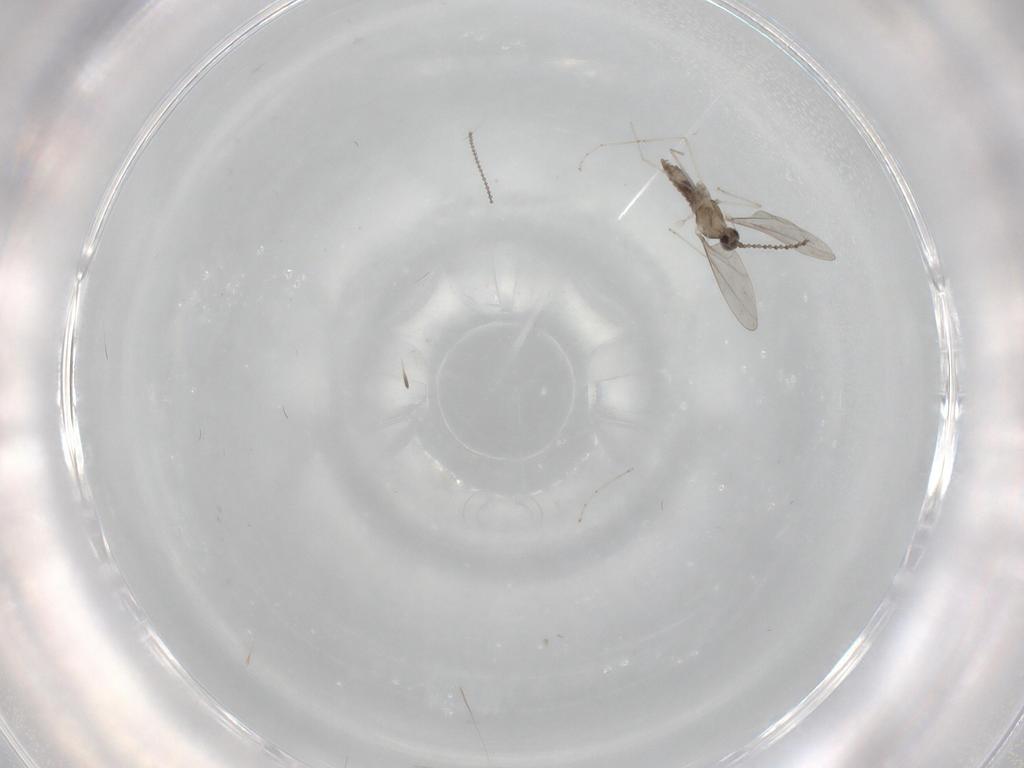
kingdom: Animalia
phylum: Arthropoda
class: Insecta
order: Diptera
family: Cecidomyiidae
